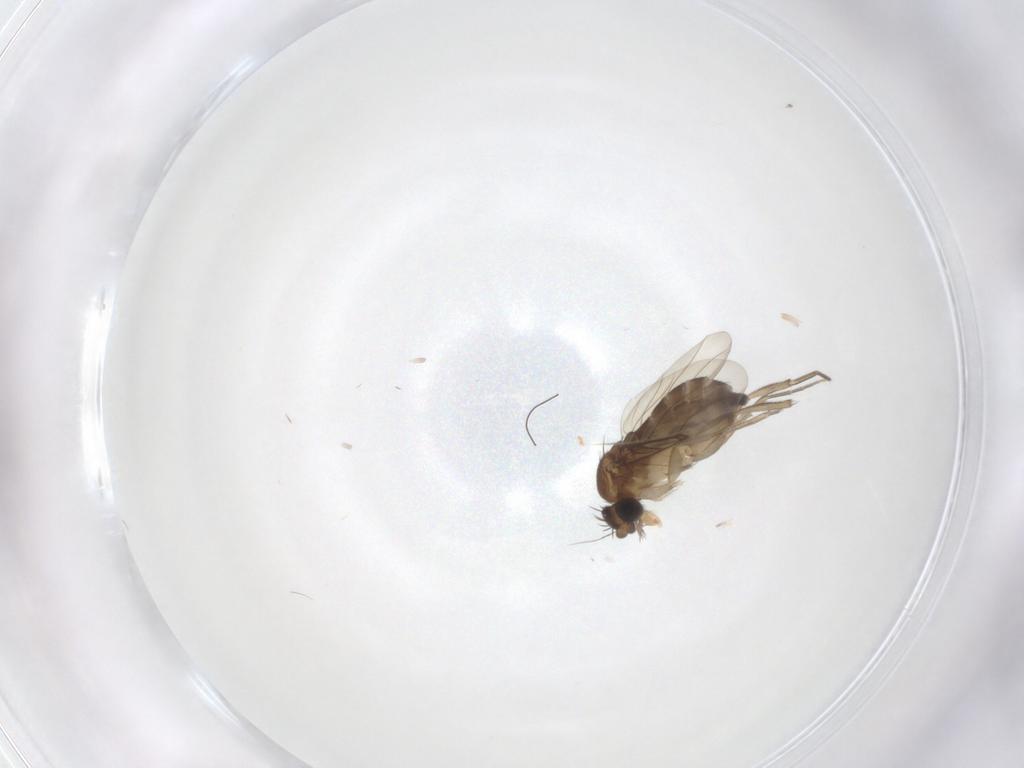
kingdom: Animalia
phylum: Arthropoda
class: Insecta
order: Diptera
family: Phoridae
